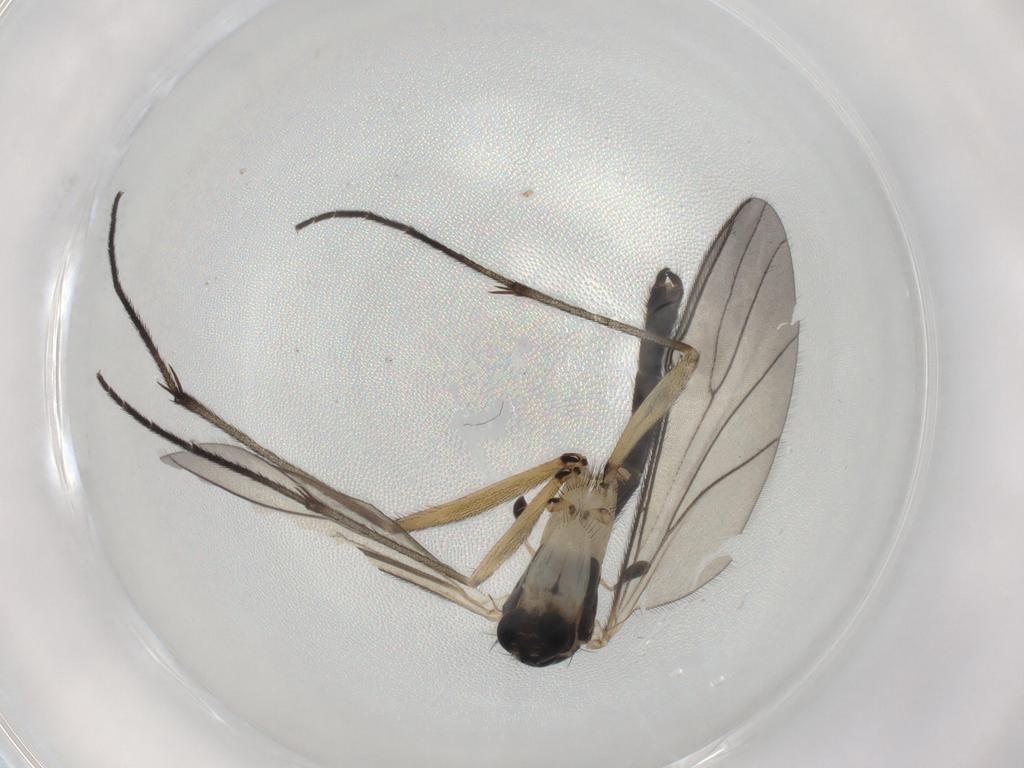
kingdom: Animalia
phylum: Arthropoda
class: Insecta
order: Diptera
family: Sciaridae
